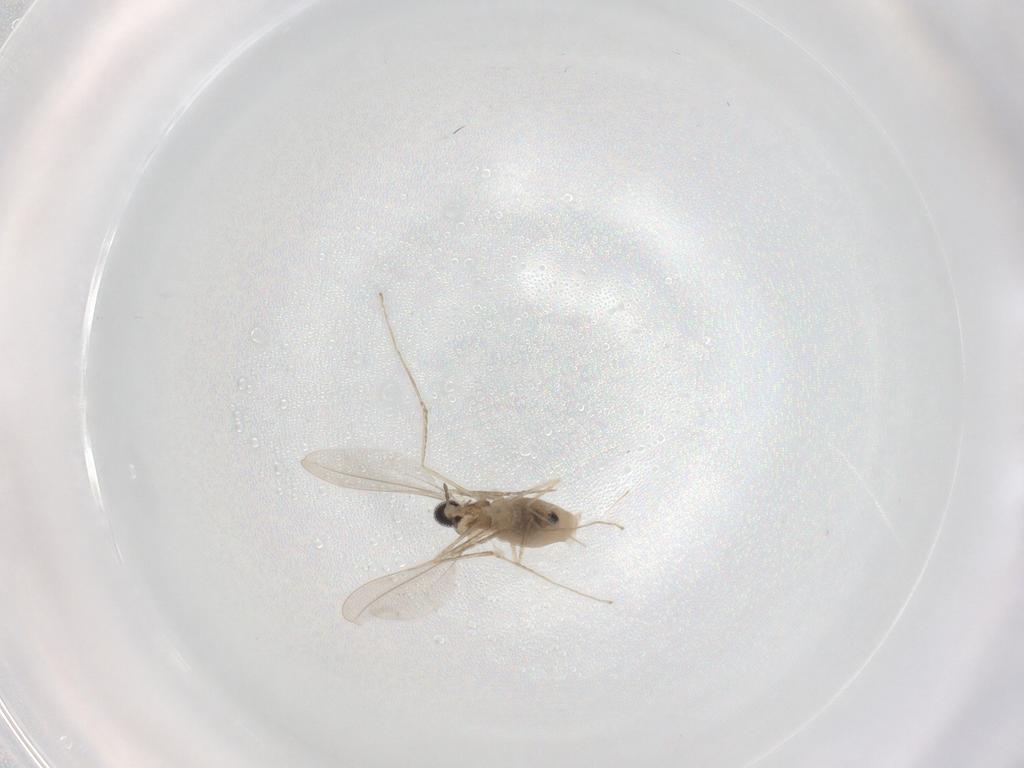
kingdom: Animalia
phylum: Arthropoda
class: Insecta
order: Diptera
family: Cecidomyiidae
